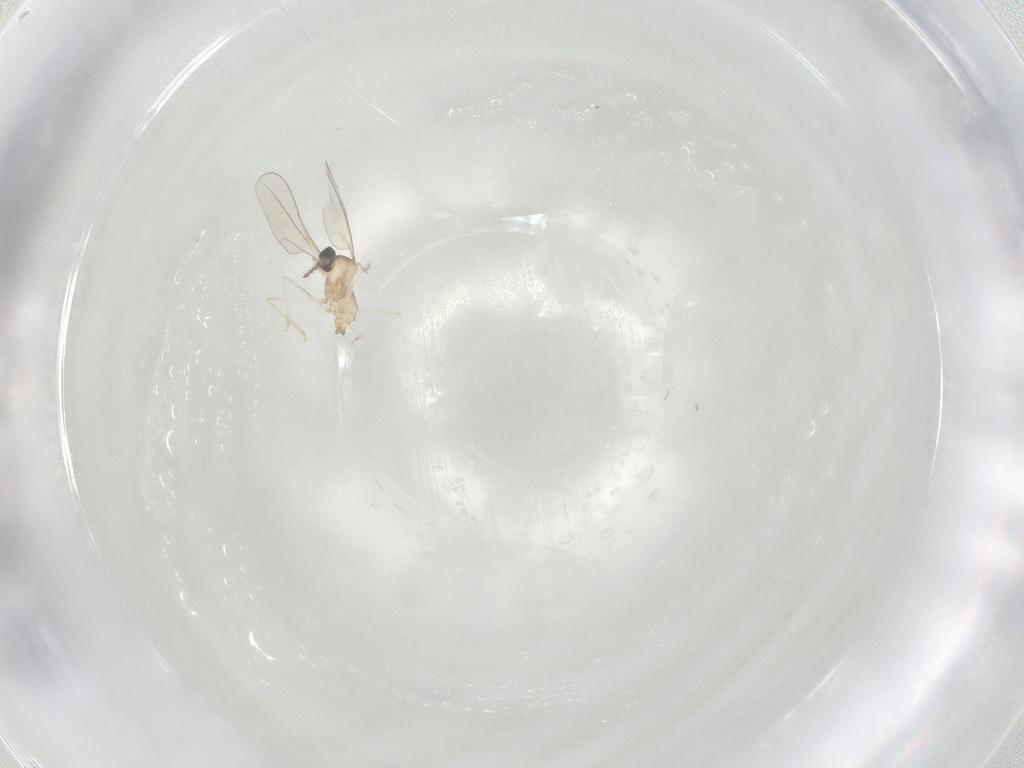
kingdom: Animalia
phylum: Arthropoda
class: Insecta
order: Diptera
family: Cecidomyiidae
